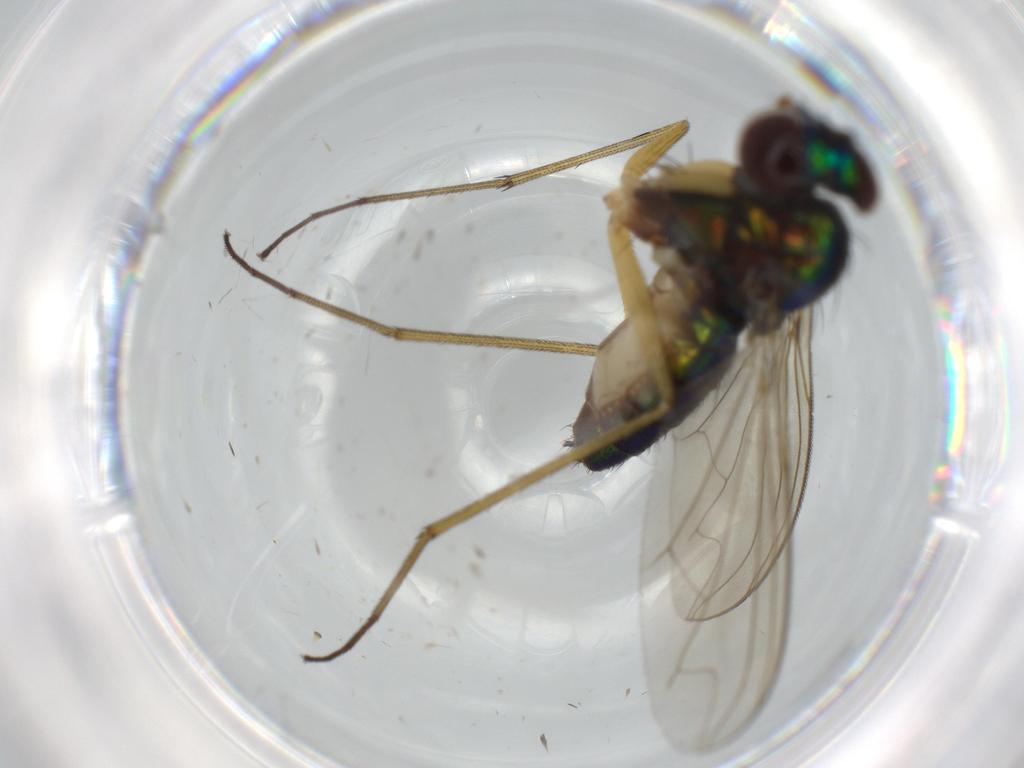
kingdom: Animalia
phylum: Arthropoda
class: Insecta
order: Diptera
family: Dolichopodidae
